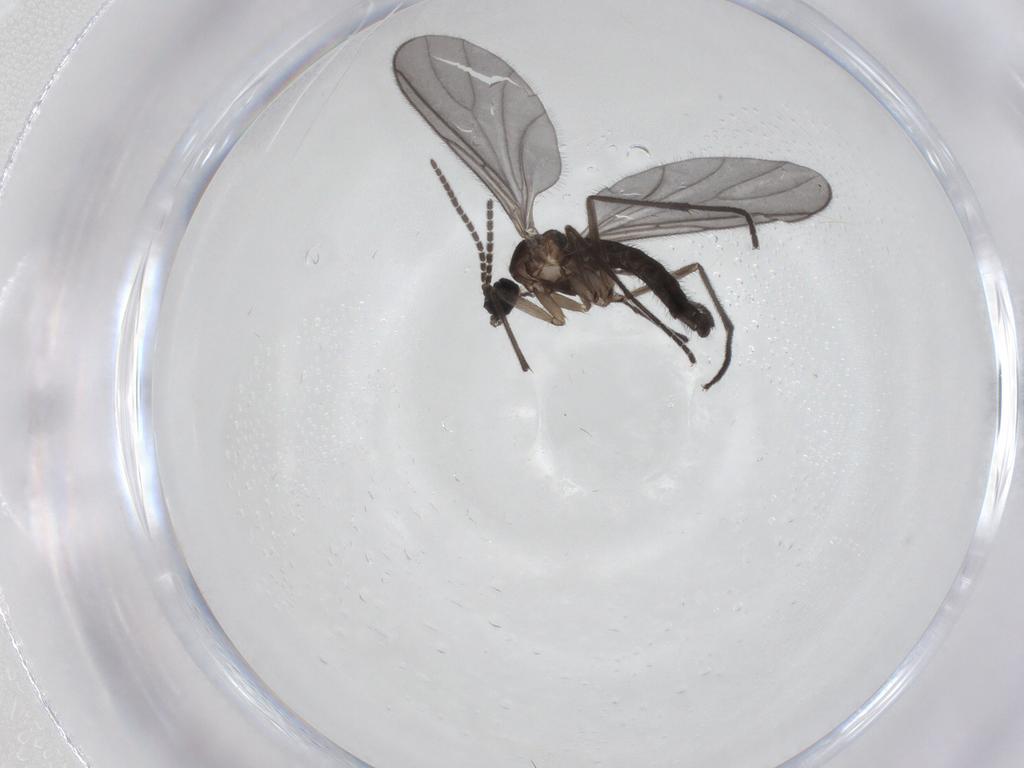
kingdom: Animalia
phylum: Arthropoda
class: Insecta
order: Diptera
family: Sciaridae
